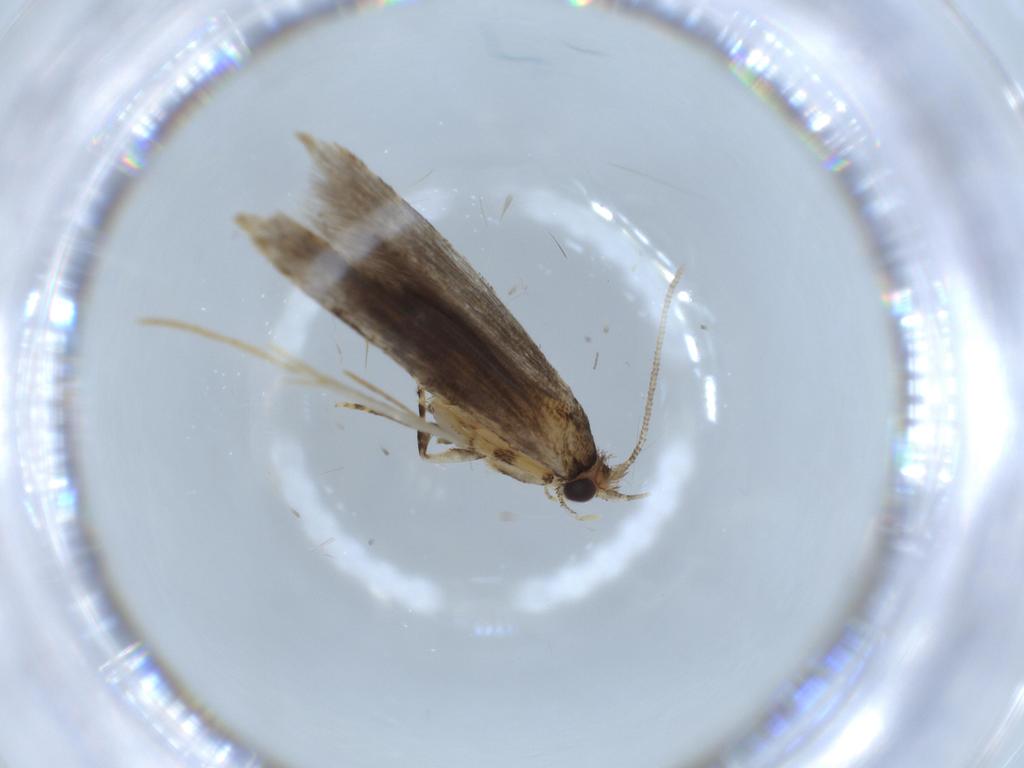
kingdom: Animalia
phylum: Arthropoda
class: Insecta
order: Lepidoptera
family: Tineidae
